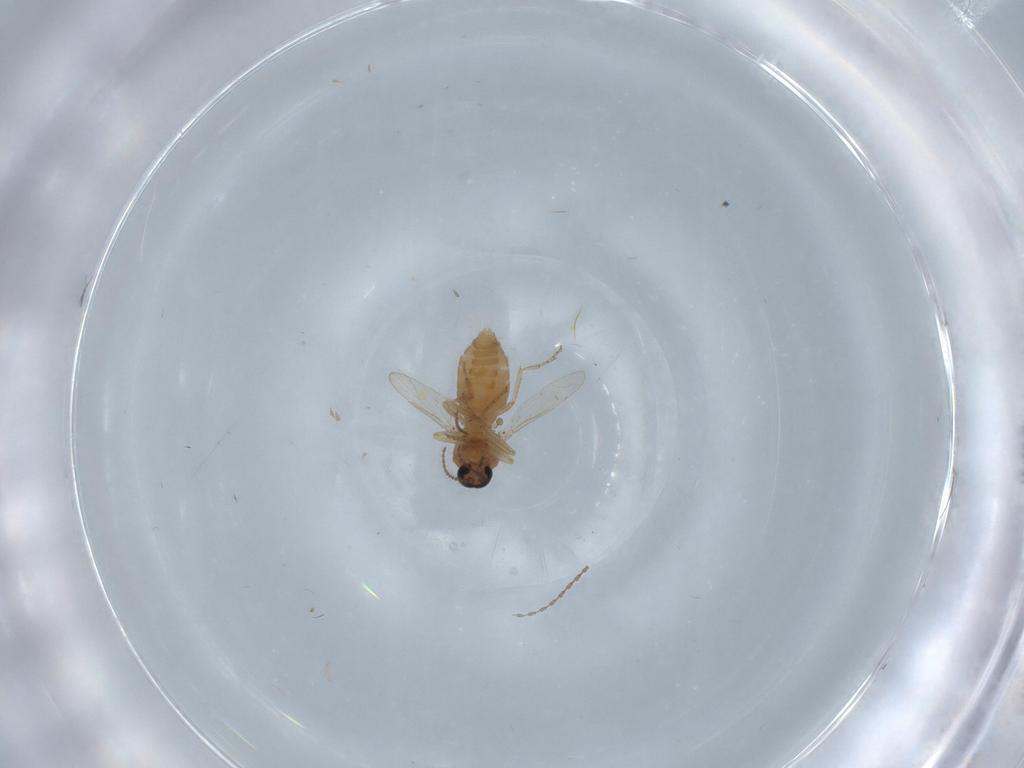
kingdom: Animalia
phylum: Arthropoda
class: Insecta
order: Diptera
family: Ceratopogonidae
